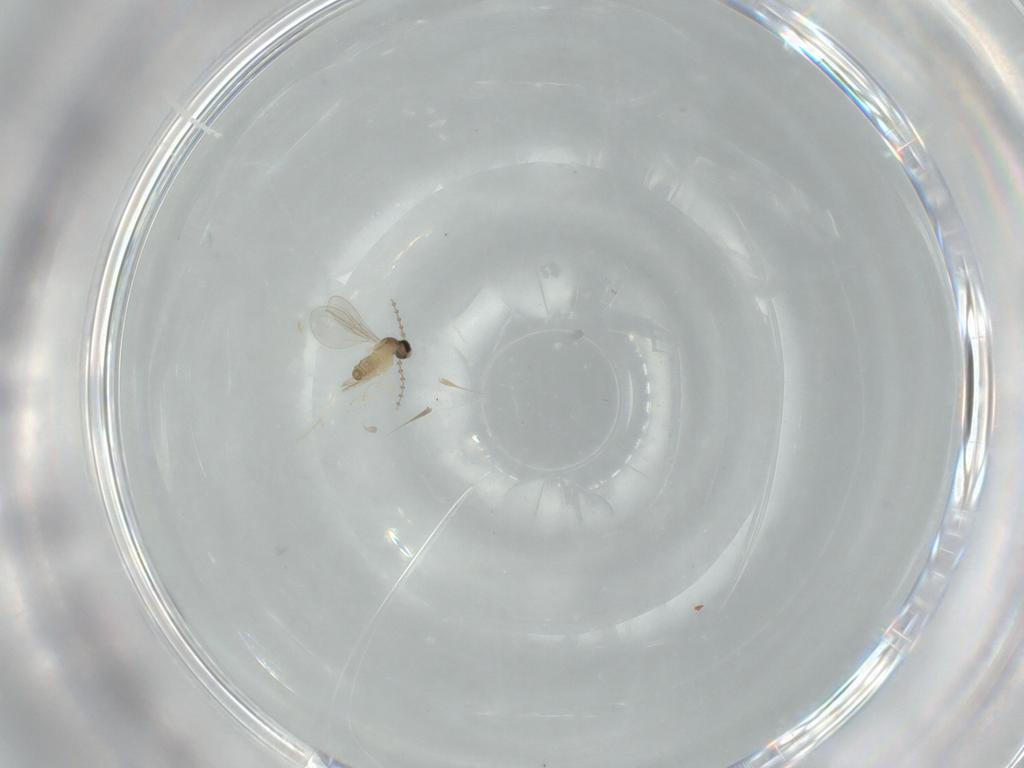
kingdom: Animalia
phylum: Arthropoda
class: Insecta
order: Diptera
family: Cecidomyiidae
